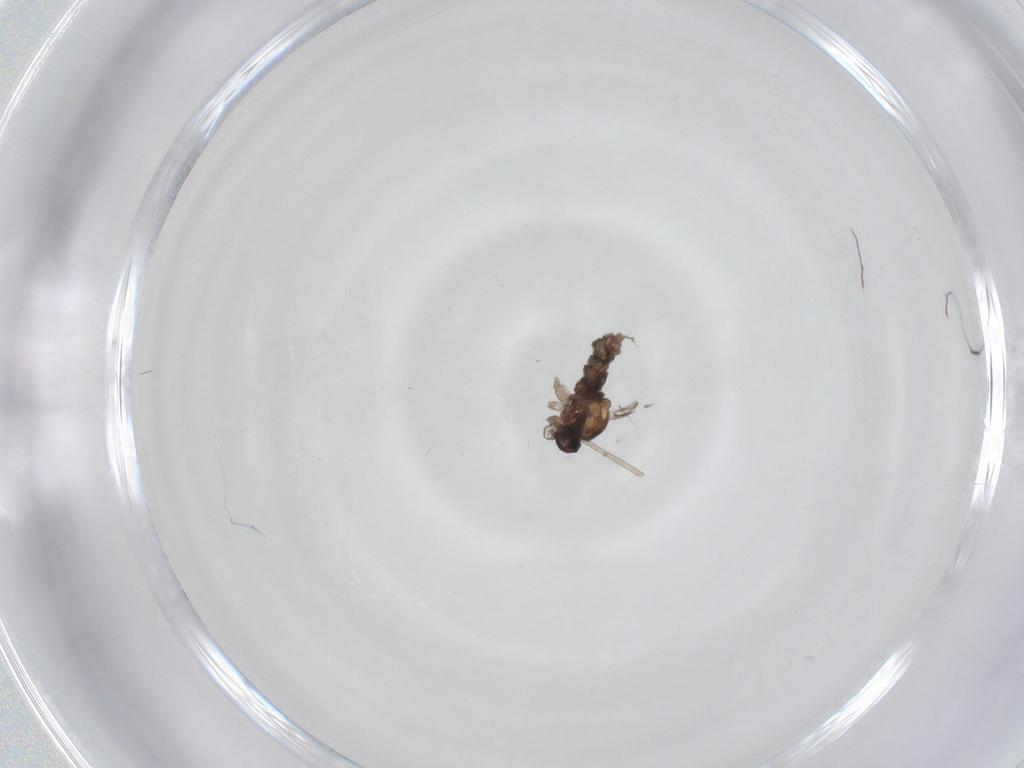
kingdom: Animalia
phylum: Arthropoda
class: Insecta
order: Diptera
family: Cecidomyiidae
